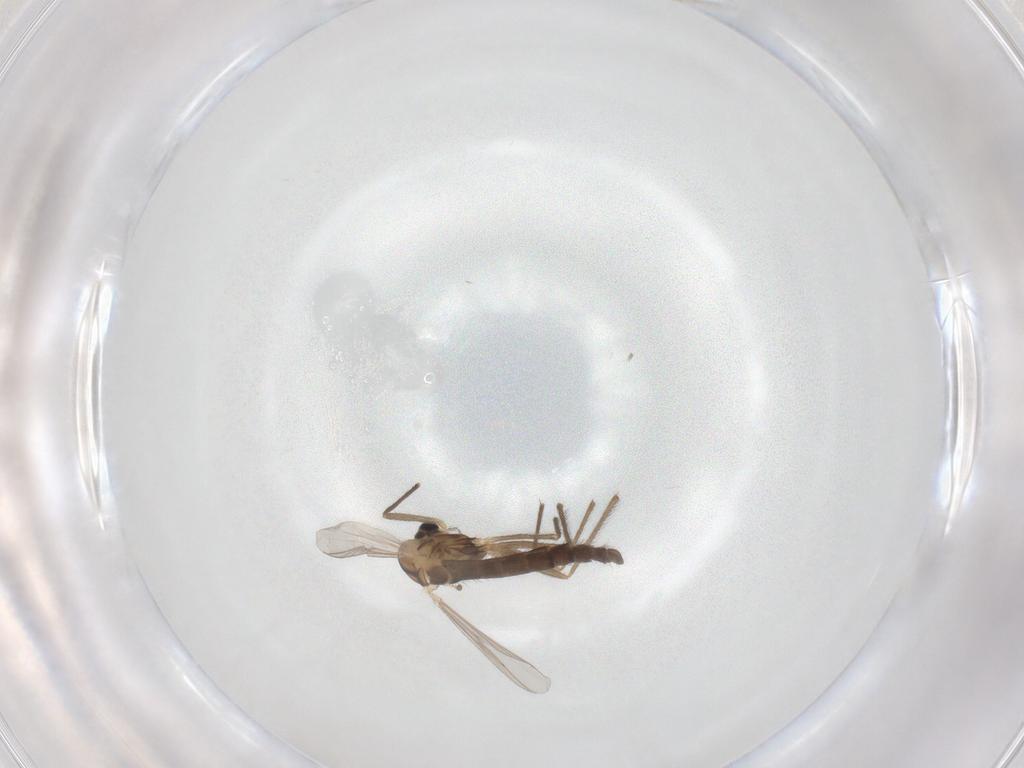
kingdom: Animalia
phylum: Arthropoda
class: Insecta
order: Diptera
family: Chironomidae
